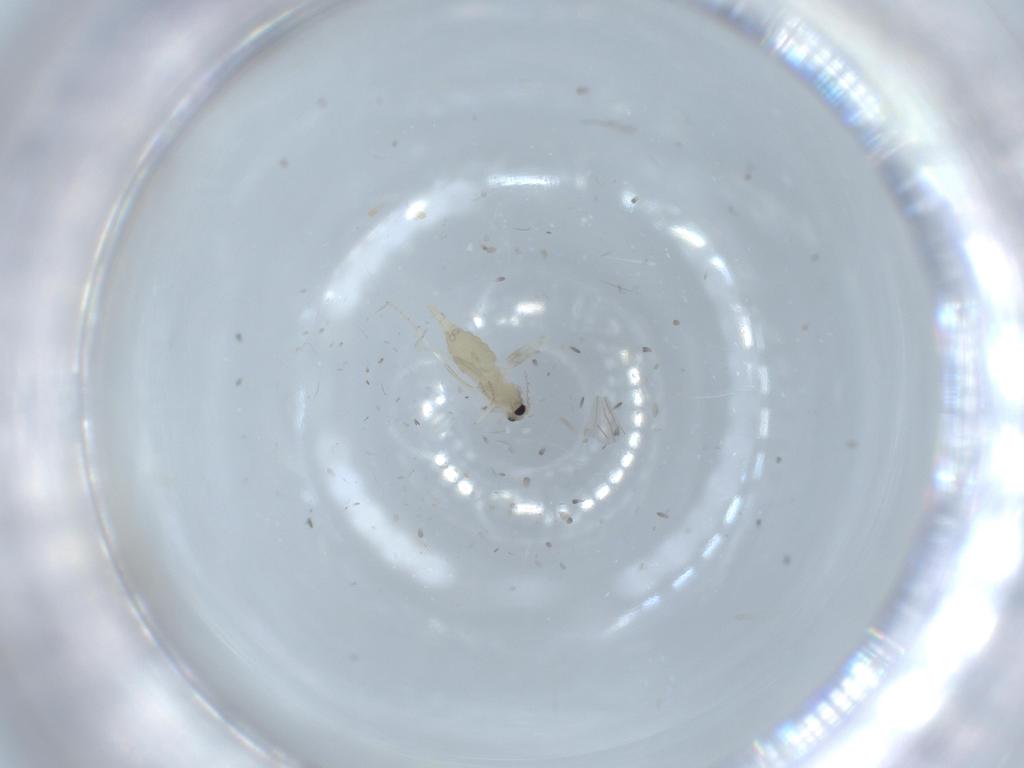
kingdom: Animalia
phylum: Arthropoda
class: Insecta
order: Diptera
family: Cecidomyiidae
